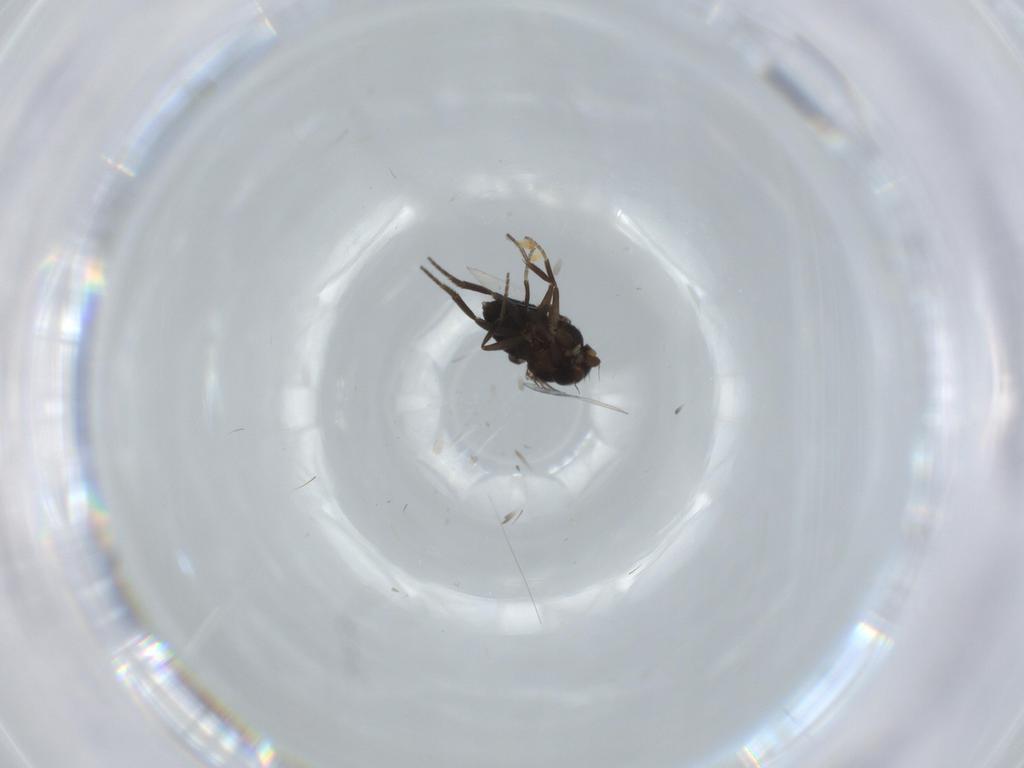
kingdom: Animalia
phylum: Arthropoda
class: Insecta
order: Diptera
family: Phoridae
